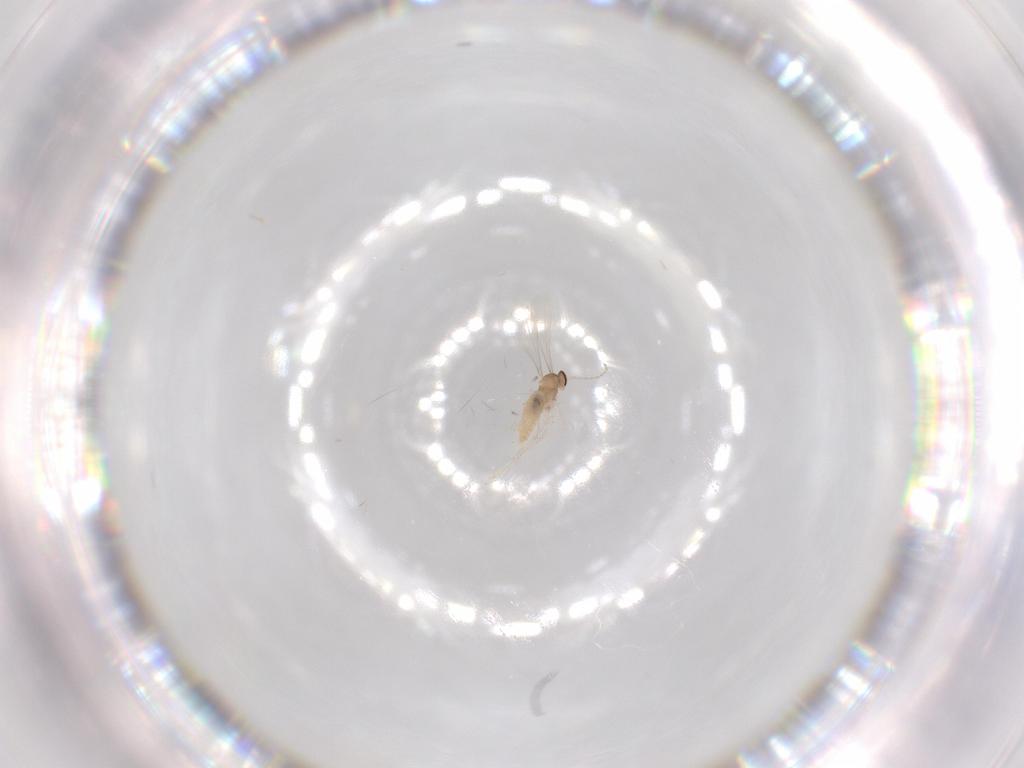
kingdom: Animalia
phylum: Arthropoda
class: Insecta
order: Diptera
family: Cecidomyiidae
